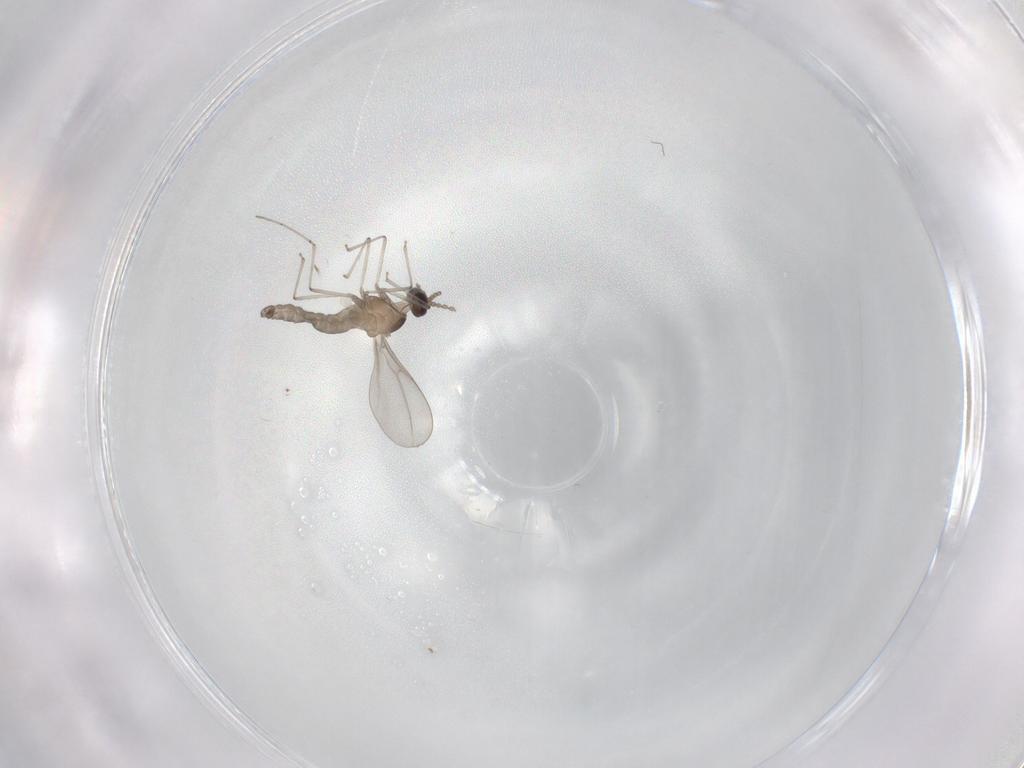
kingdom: Animalia
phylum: Arthropoda
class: Insecta
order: Diptera
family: Cecidomyiidae
